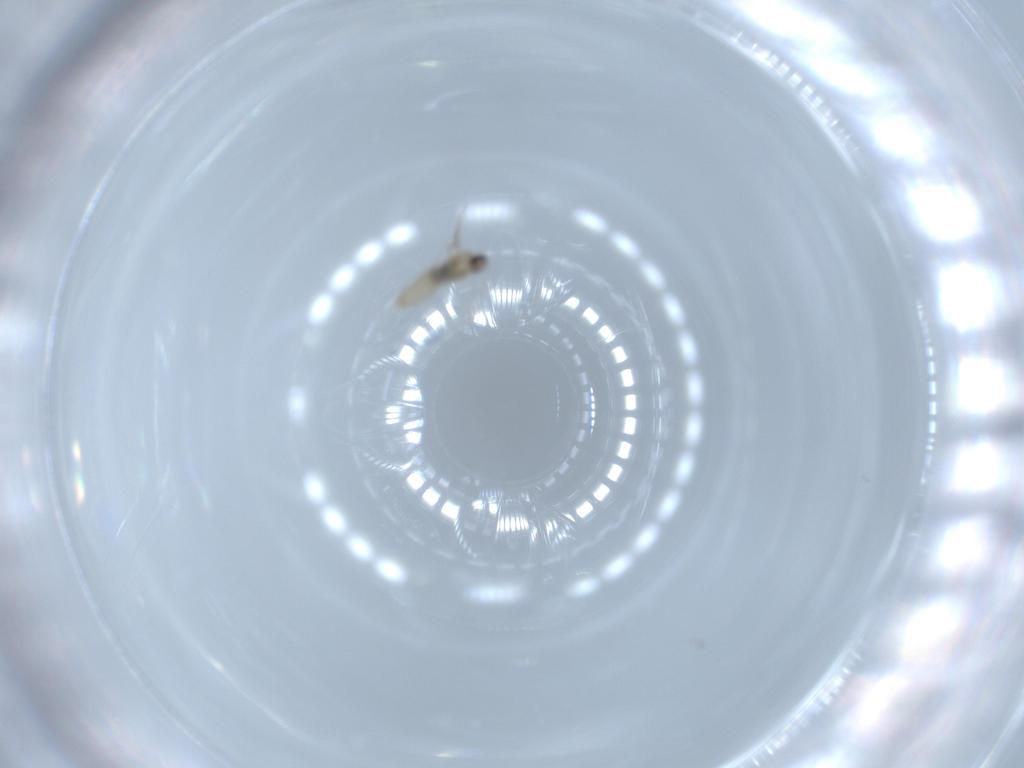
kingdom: Animalia
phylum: Arthropoda
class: Insecta
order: Diptera
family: Cecidomyiidae
